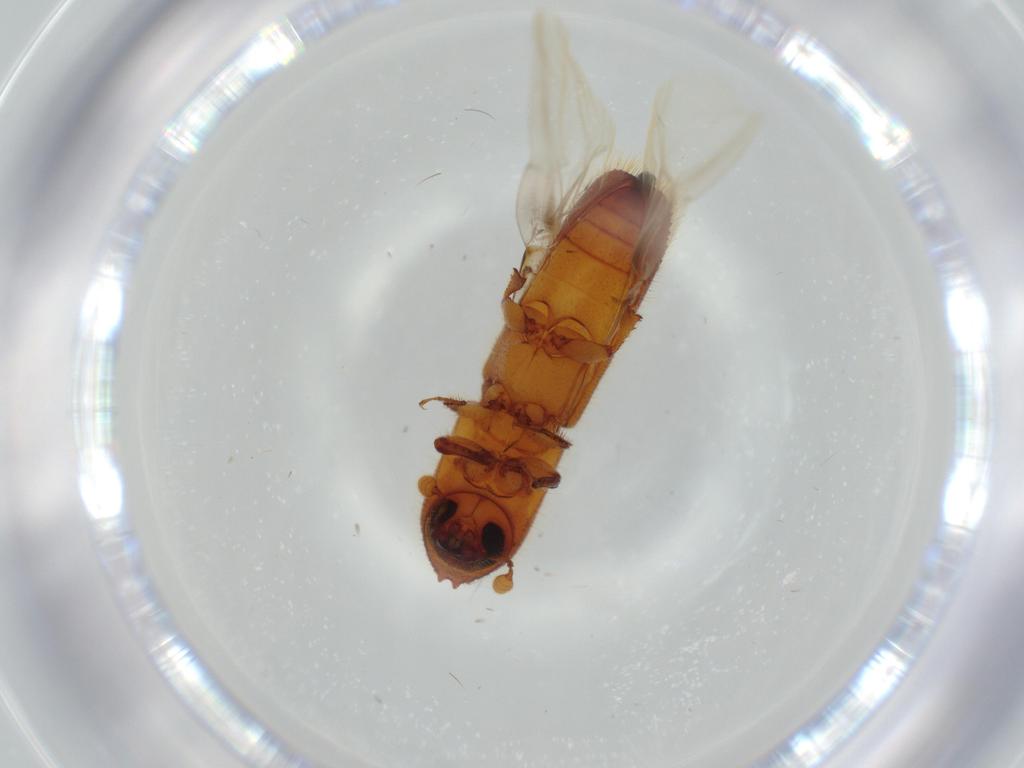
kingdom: Animalia
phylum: Arthropoda
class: Insecta
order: Coleoptera
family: Curculionidae
